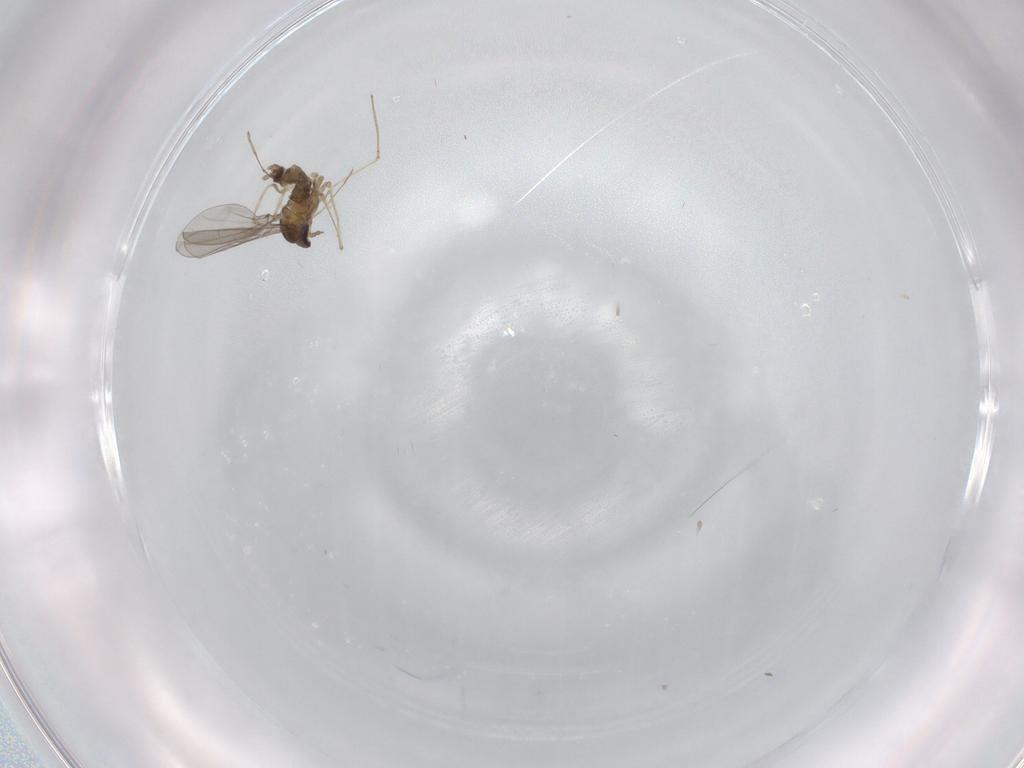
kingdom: Animalia
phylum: Arthropoda
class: Insecta
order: Diptera
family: Cecidomyiidae
